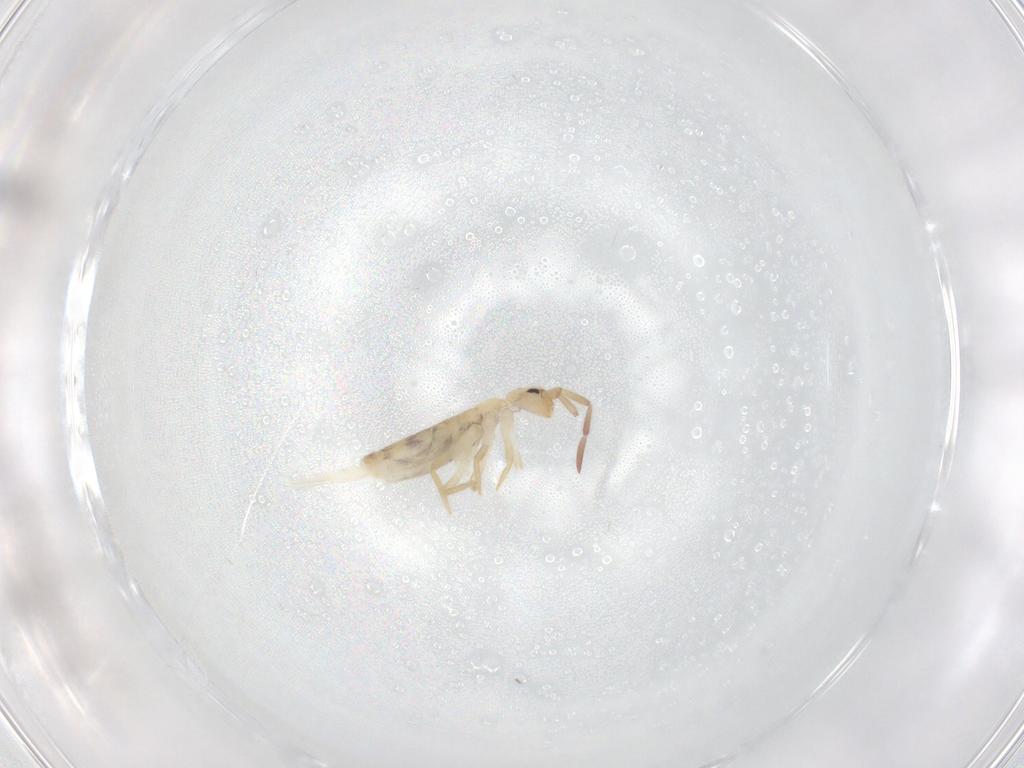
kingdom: Animalia
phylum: Arthropoda
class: Collembola
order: Entomobryomorpha
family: Entomobryidae
